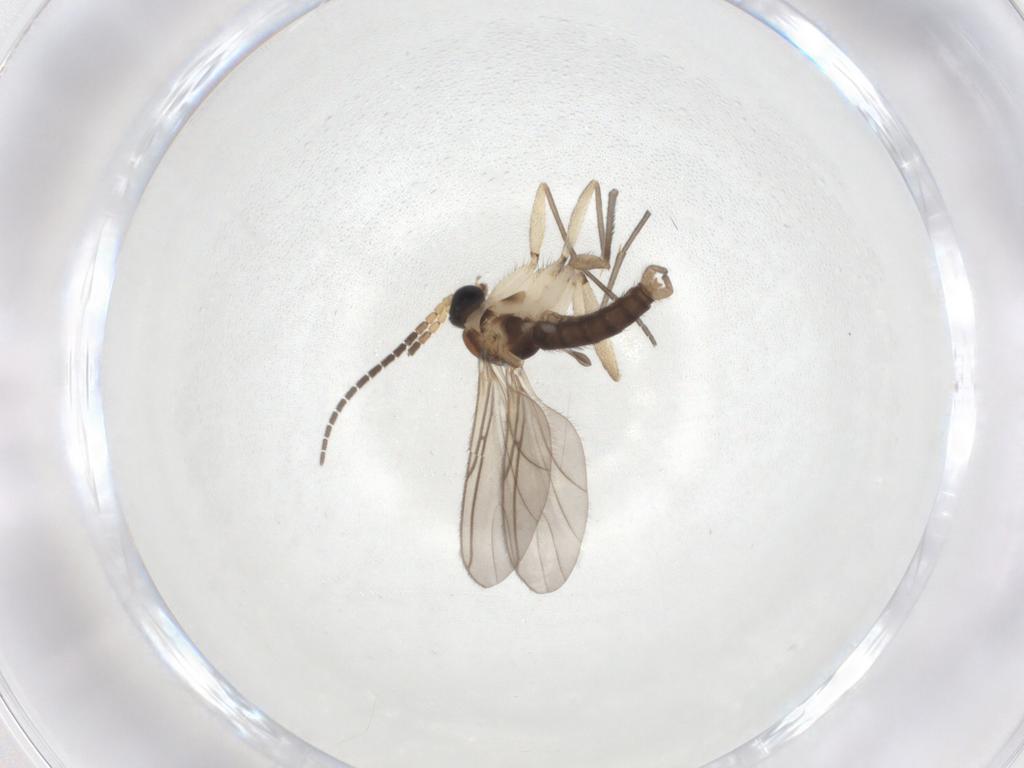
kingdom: Animalia
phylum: Arthropoda
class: Insecta
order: Diptera
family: Sciaridae
